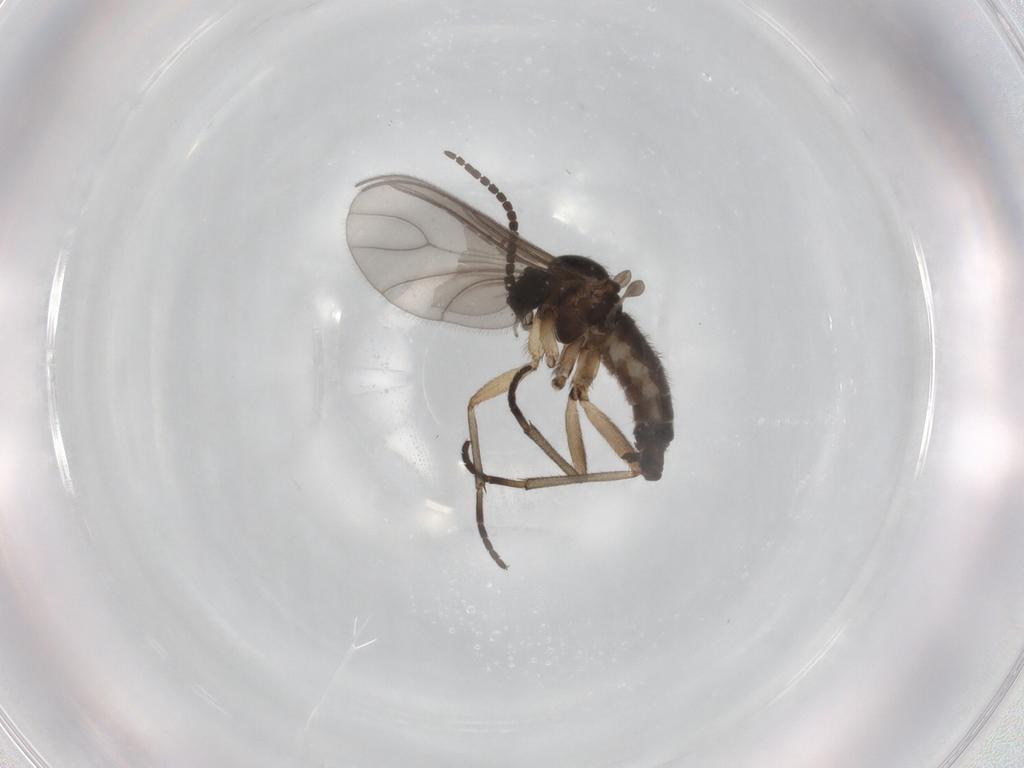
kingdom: Animalia
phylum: Arthropoda
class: Insecta
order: Diptera
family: Sciaridae
